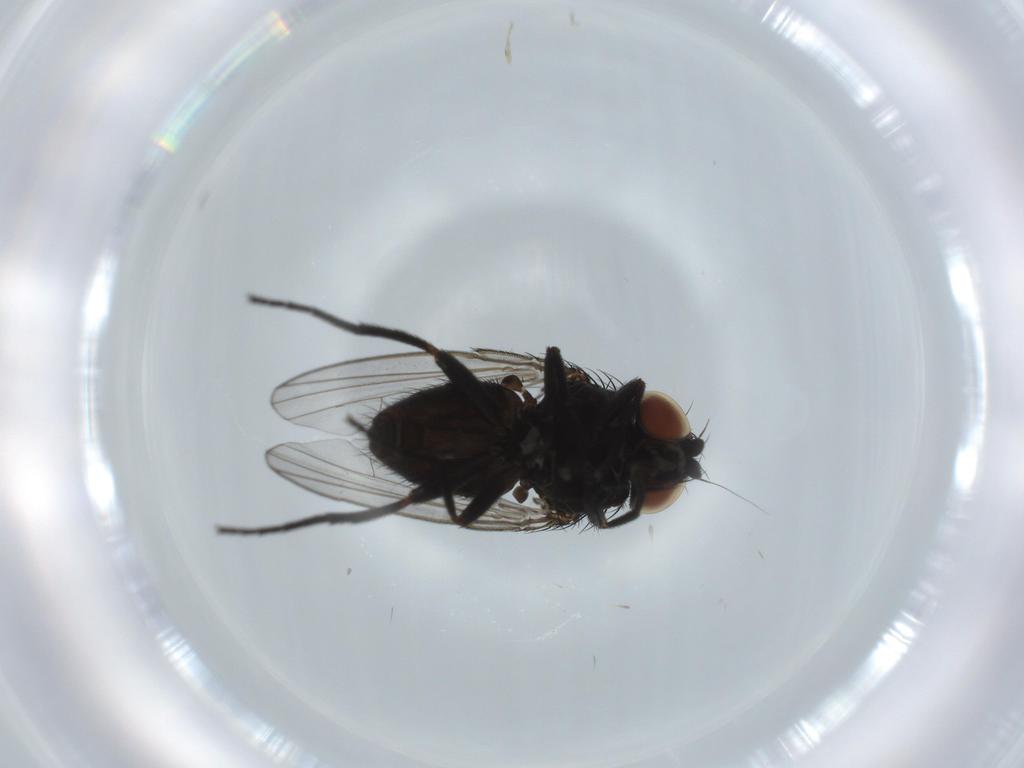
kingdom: Animalia
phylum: Arthropoda
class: Insecta
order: Diptera
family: Milichiidae
